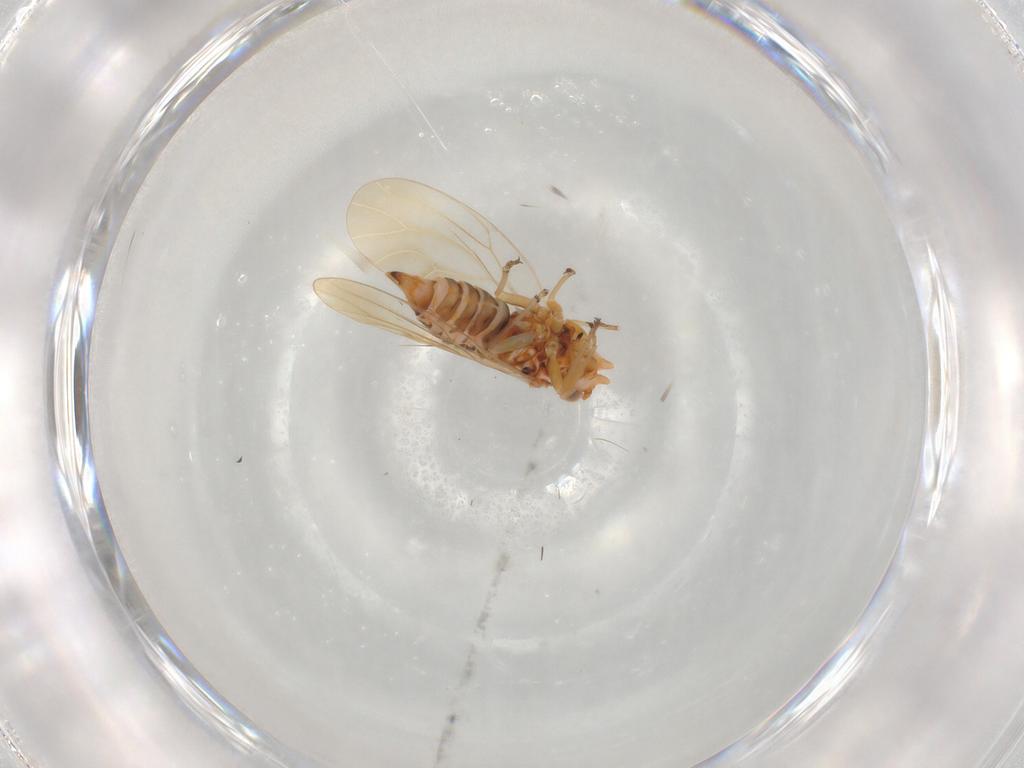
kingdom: Animalia
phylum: Arthropoda
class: Insecta
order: Hemiptera
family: Psyllidae
